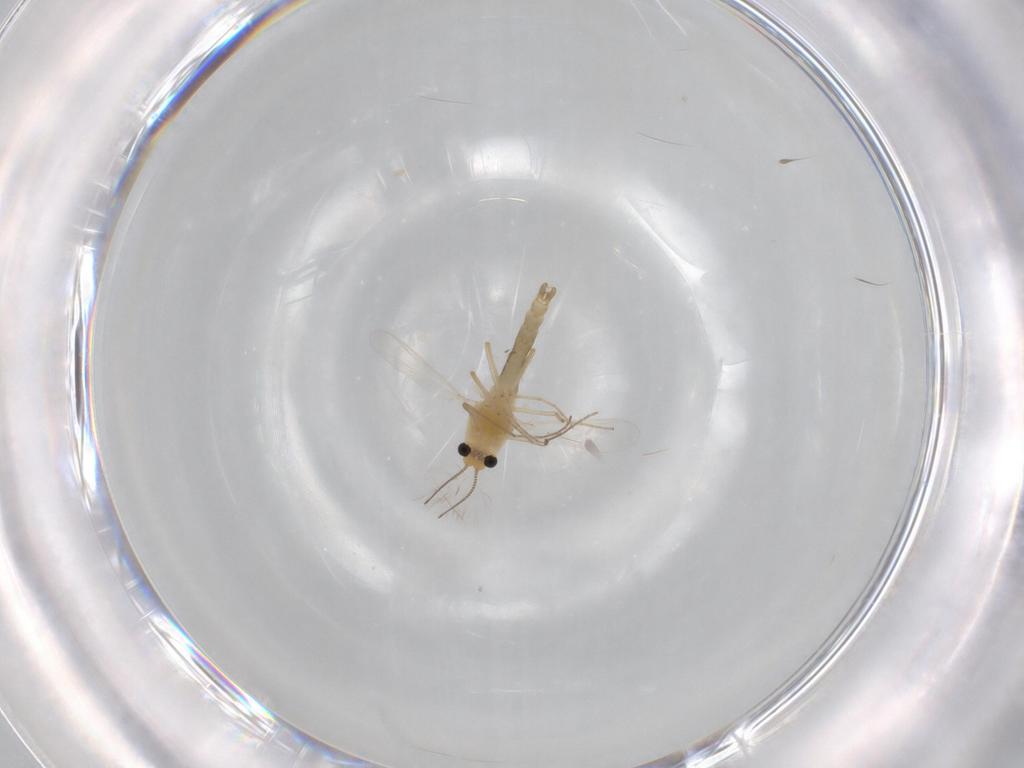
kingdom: Animalia
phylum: Arthropoda
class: Insecta
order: Diptera
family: Chironomidae
